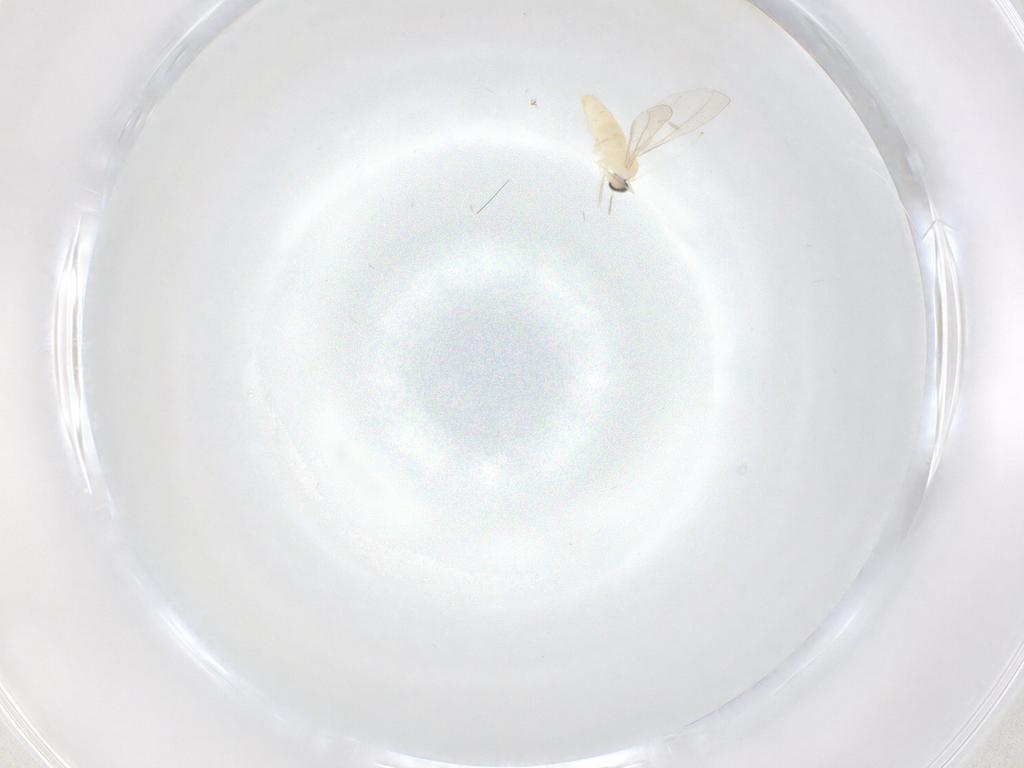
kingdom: Animalia
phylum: Arthropoda
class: Insecta
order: Diptera
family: Cecidomyiidae
